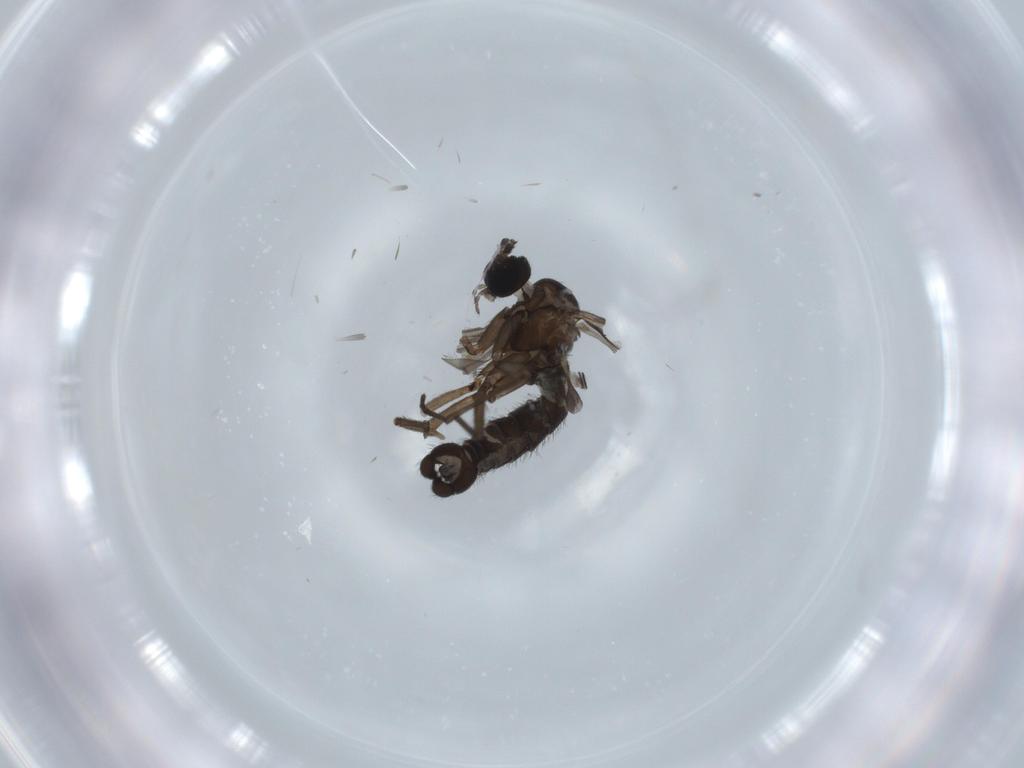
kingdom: Animalia
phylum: Arthropoda
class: Insecta
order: Diptera
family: Sciaridae
